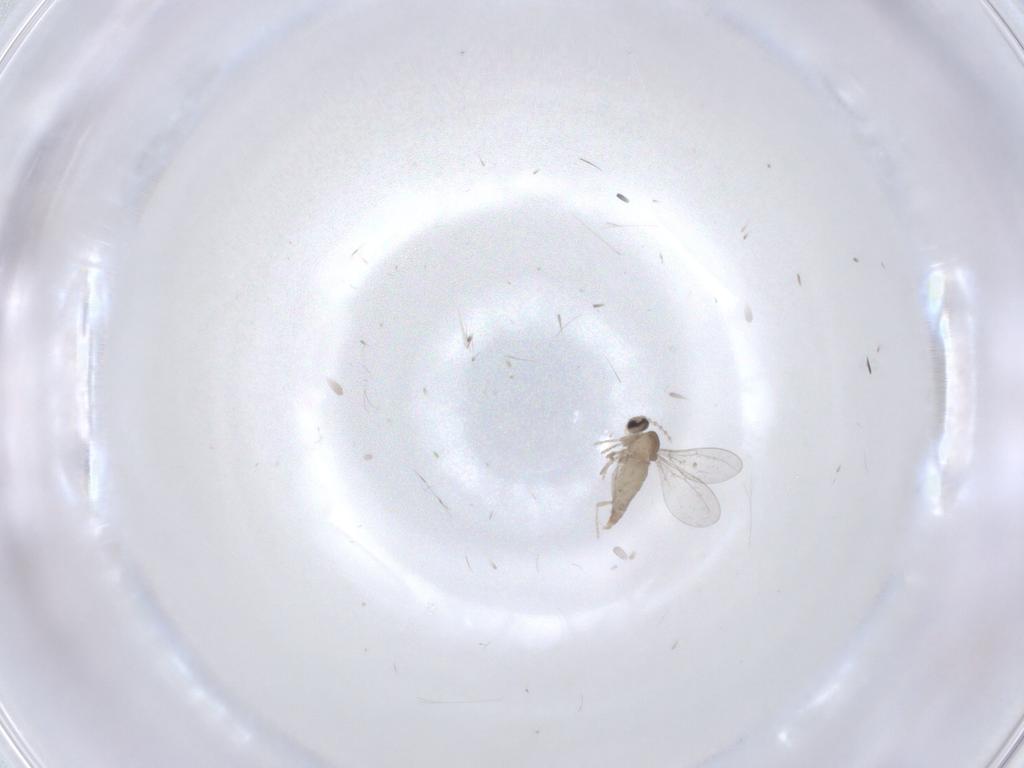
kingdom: Animalia
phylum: Arthropoda
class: Insecta
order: Diptera
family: Cecidomyiidae
